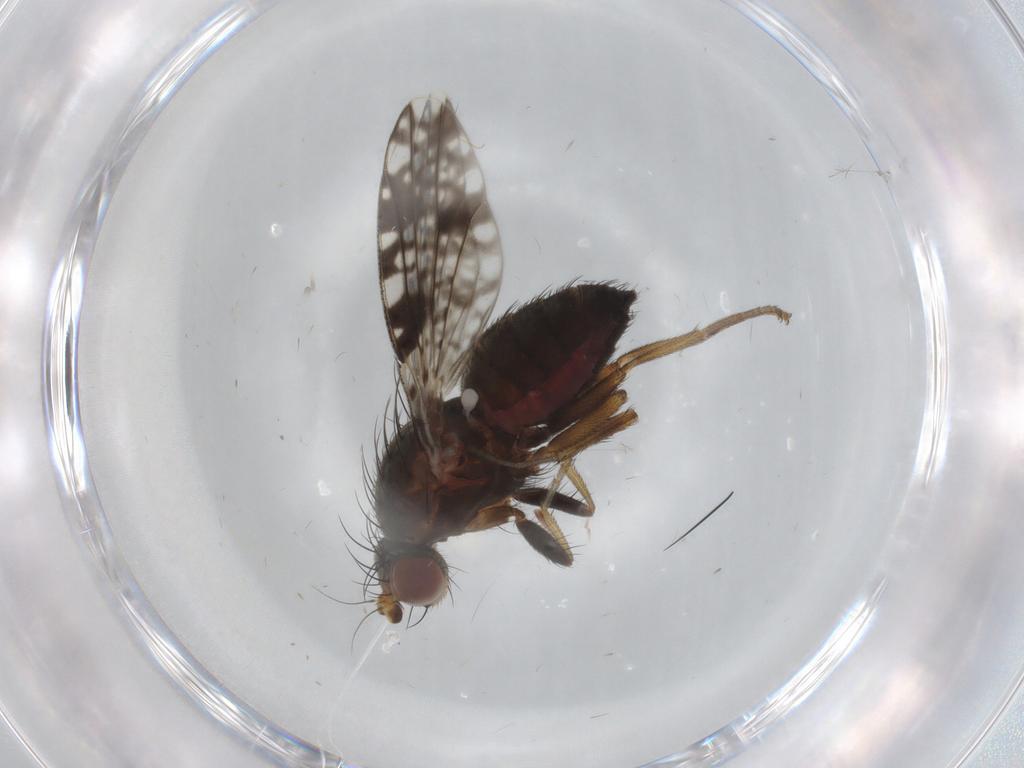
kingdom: Animalia
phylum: Arthropoda
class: Insecta
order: Diptera
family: Tephritidae
